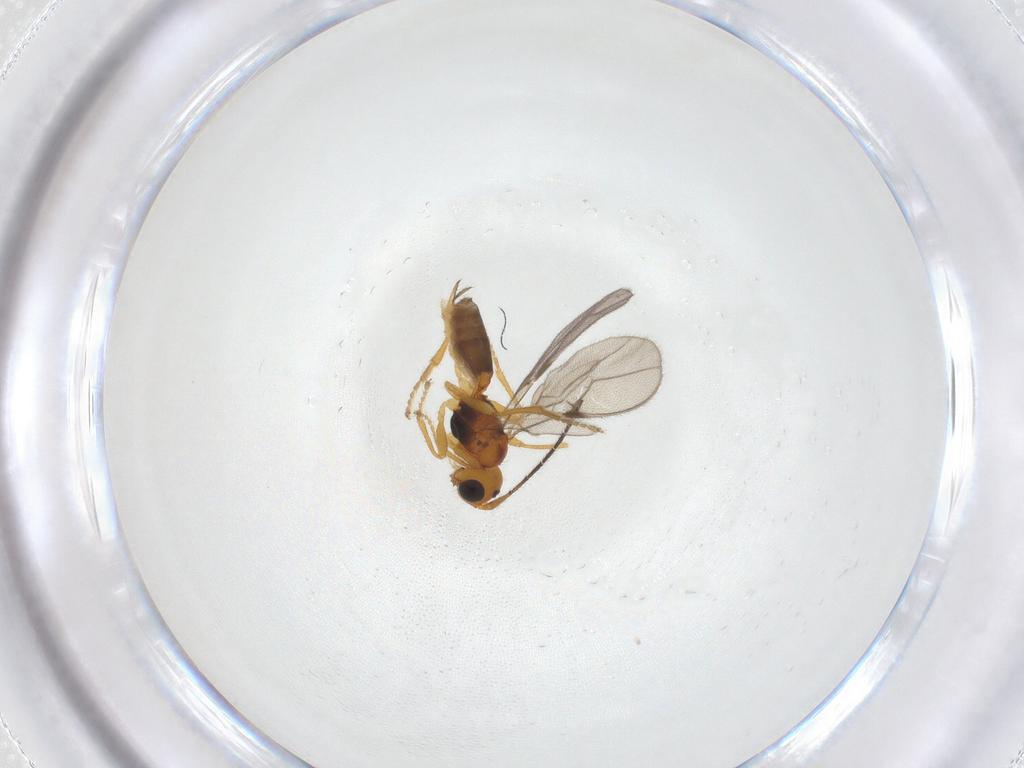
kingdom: Animalia
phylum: Arthropoda
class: Insecta
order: Hymenoptera
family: Braconidae
